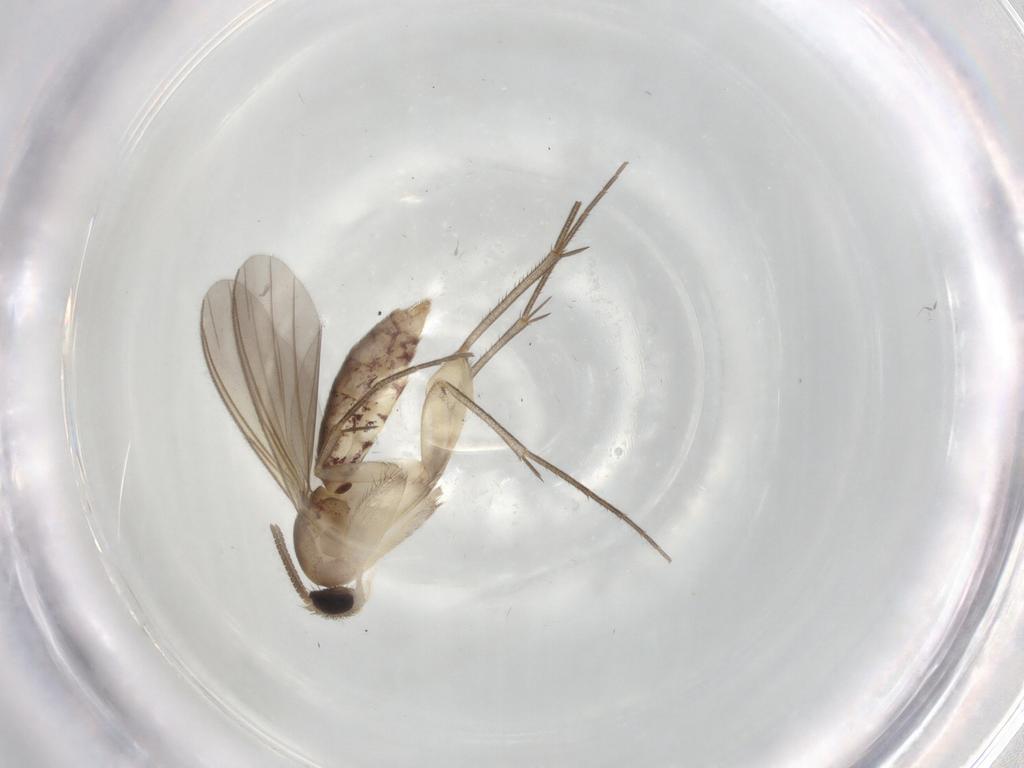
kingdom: Animalia
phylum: Arthropoda
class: Insecta
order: Diptera
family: Mycetophilidae
